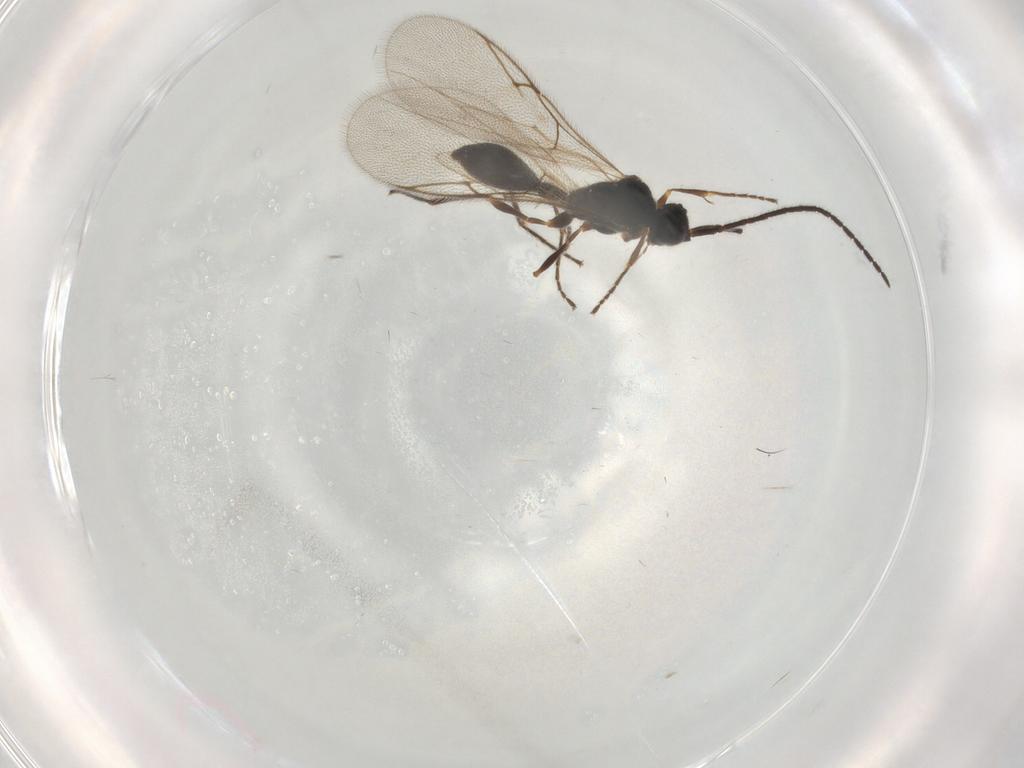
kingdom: Animalia
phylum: Arthropoda
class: Insecta
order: Hymenoptera
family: Diapriidae
